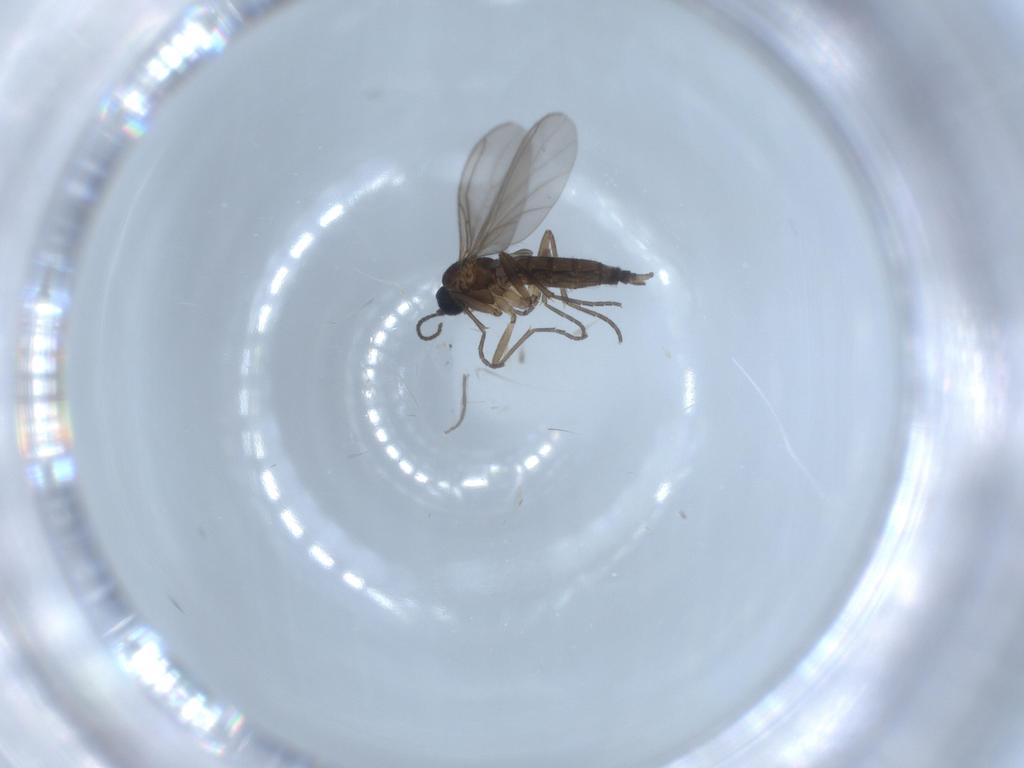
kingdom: Animalia
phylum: Arthropoda
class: Insecta
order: Diptera
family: Sciaridae
